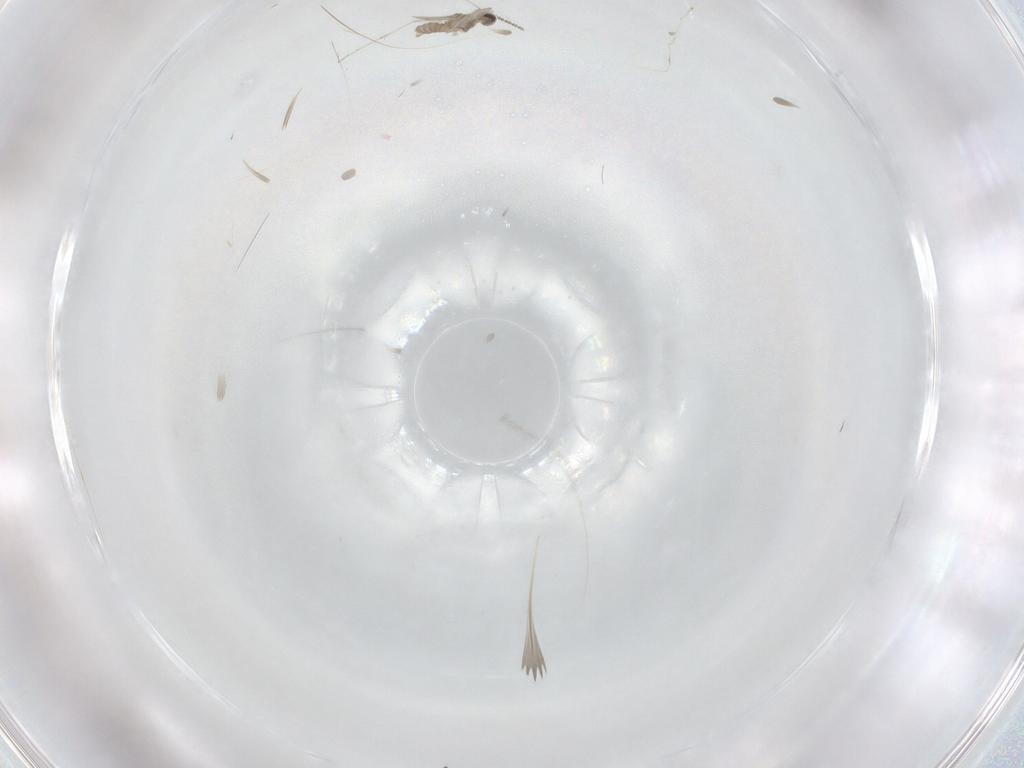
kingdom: Animalia
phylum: Arthropoda
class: Insecta
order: Diptera
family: Cecidomyiidae
